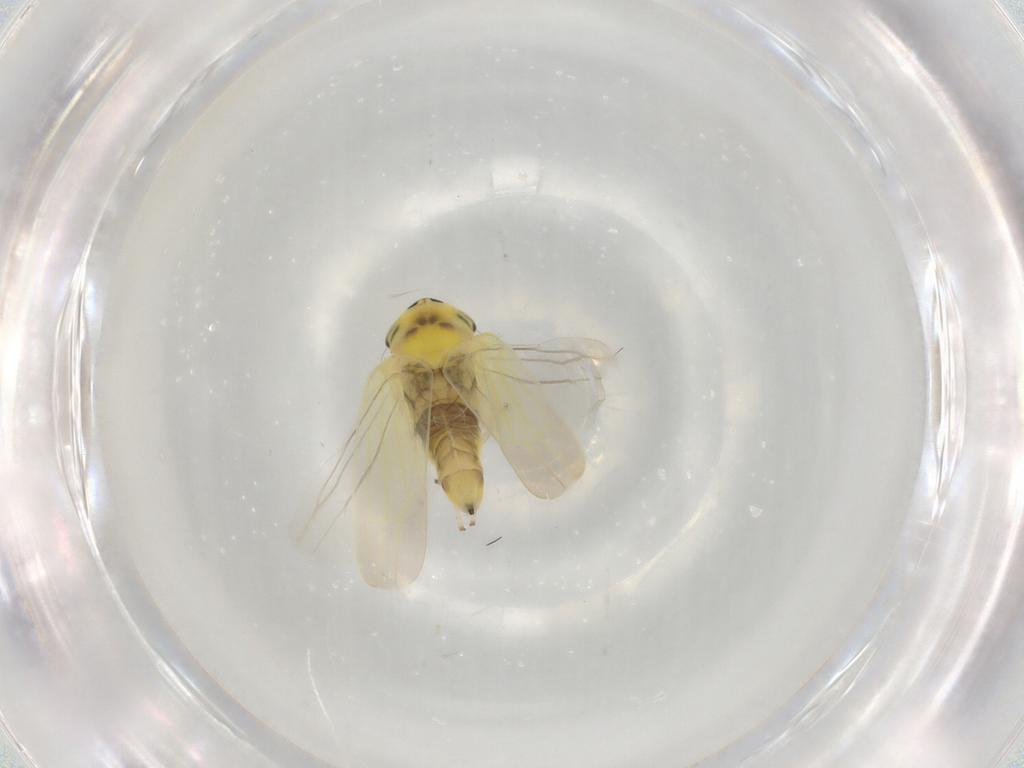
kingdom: Animalia
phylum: Arthropoda
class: Insecta
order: Hemiptera
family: Cicadellidae
